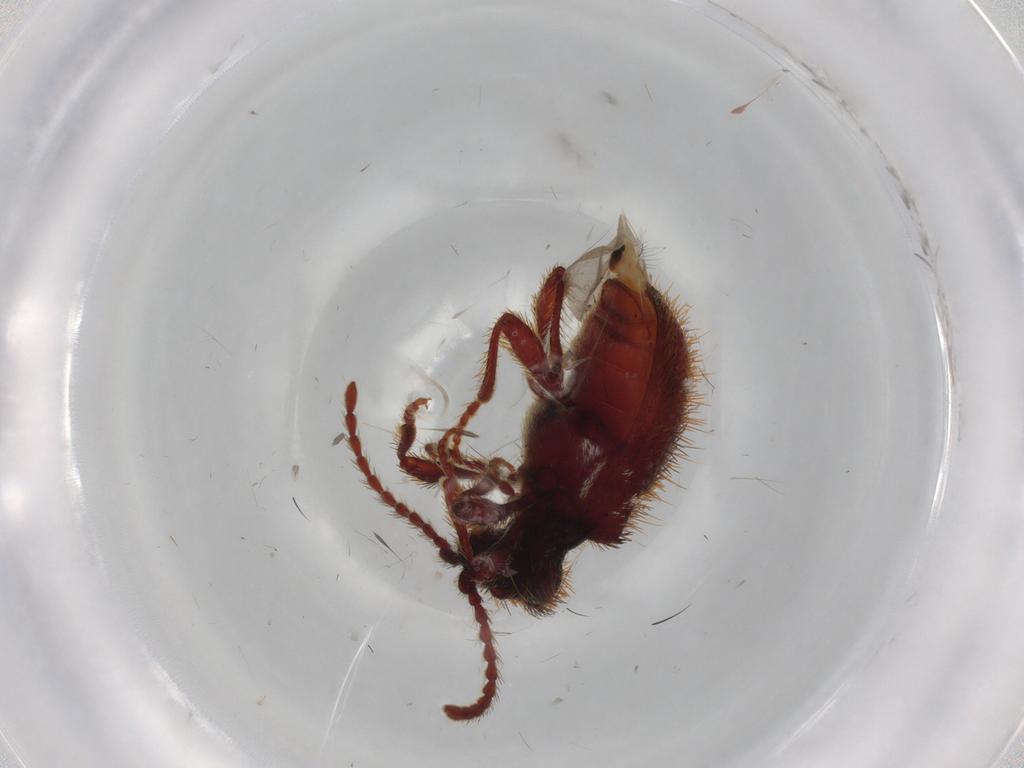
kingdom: Animalia
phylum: Arthropoda
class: Insecta
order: Coleoptera
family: Ptinidae
